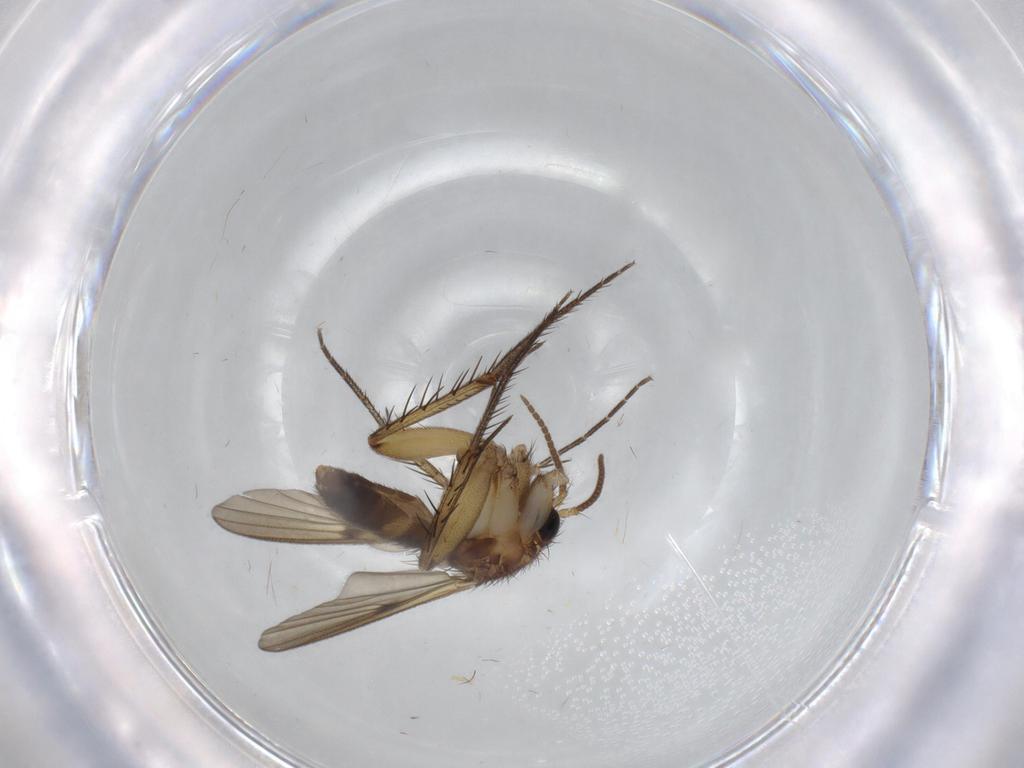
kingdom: Animalia
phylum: Arthropoda
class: Insecta
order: Diptera
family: Mycetophilidae
